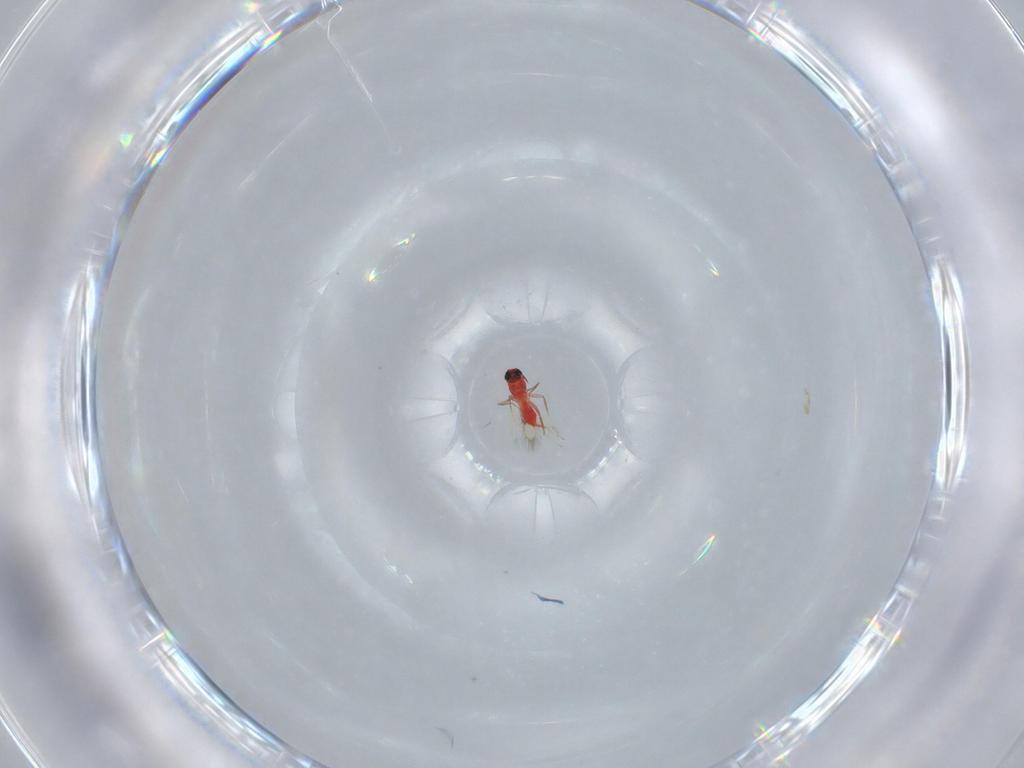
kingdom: Animalia
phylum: Arthropoda
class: Insecta
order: Hymenoptera
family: Trichogrammatidae
